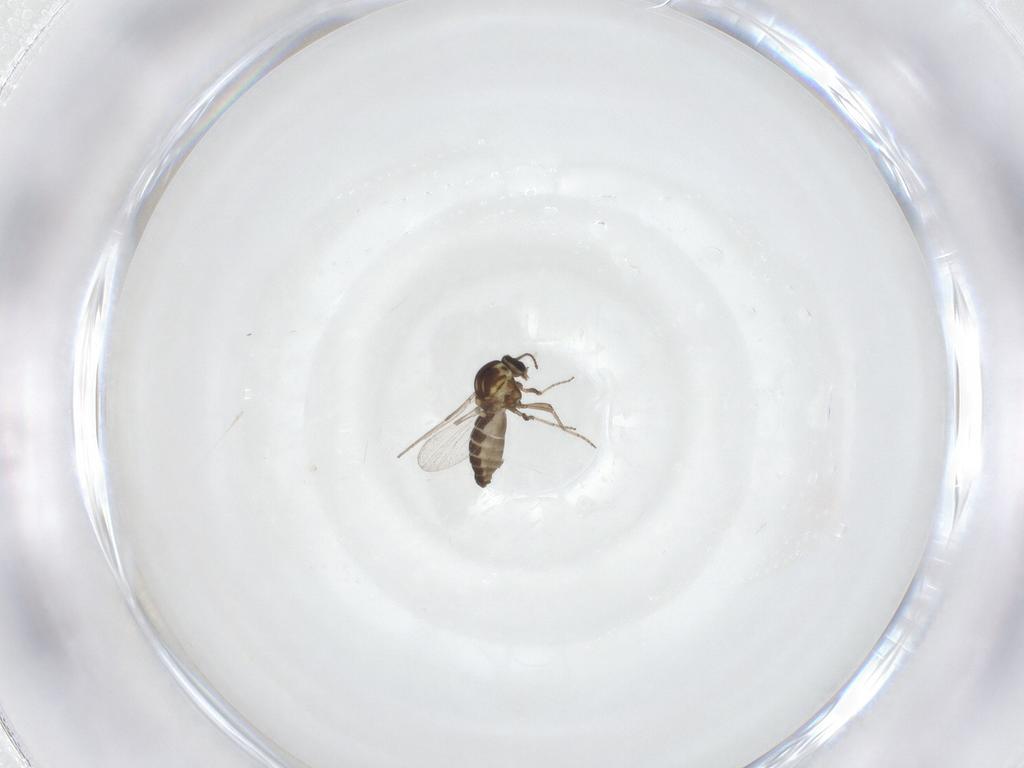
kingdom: Animalia
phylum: Arthropoda
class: Insecta
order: Diptera
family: Ceratopogonidae
